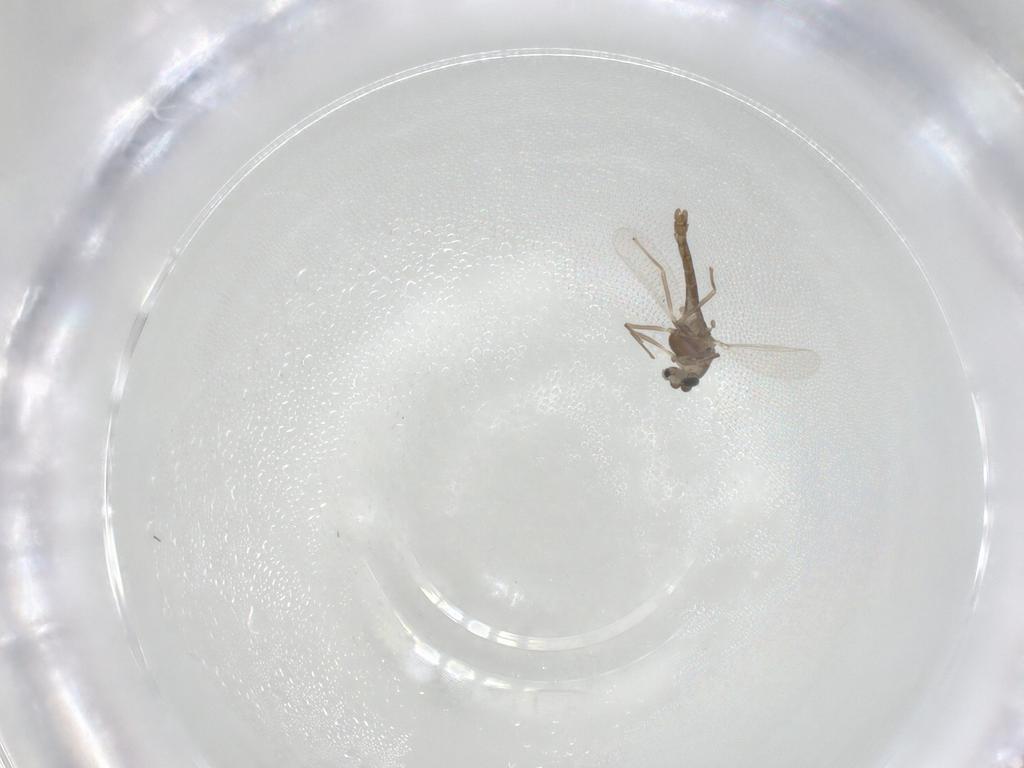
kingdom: Animalia
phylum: Arthropoda
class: Insecta
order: Diptera
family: Chironomidae
